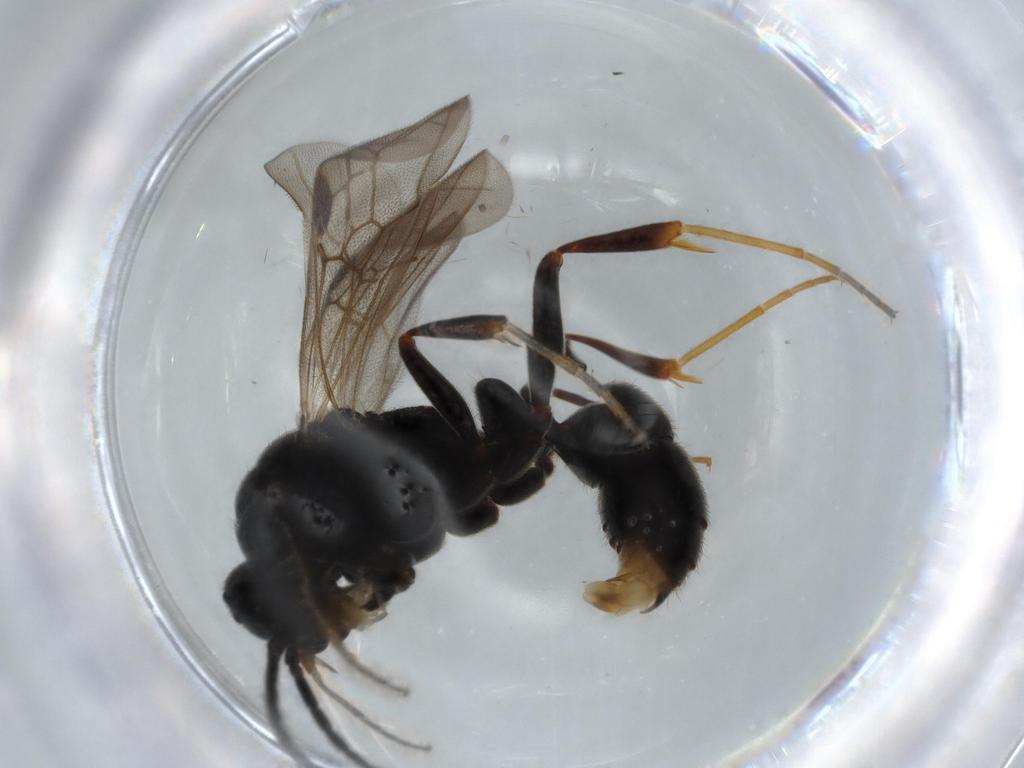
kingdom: Animalia
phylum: Arthropoda
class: Insecta
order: Hymenoptera
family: Formicidae
